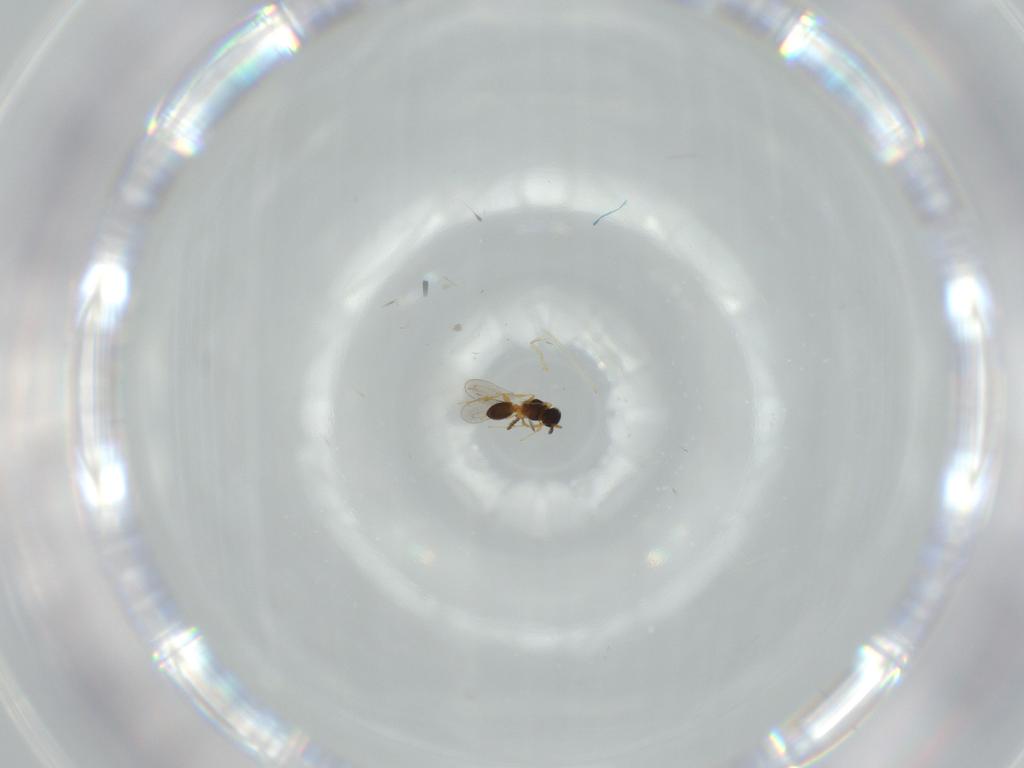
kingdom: Animalia
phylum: Arthropoda
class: Insecta
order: Hymenoptera
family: Platygastridae
